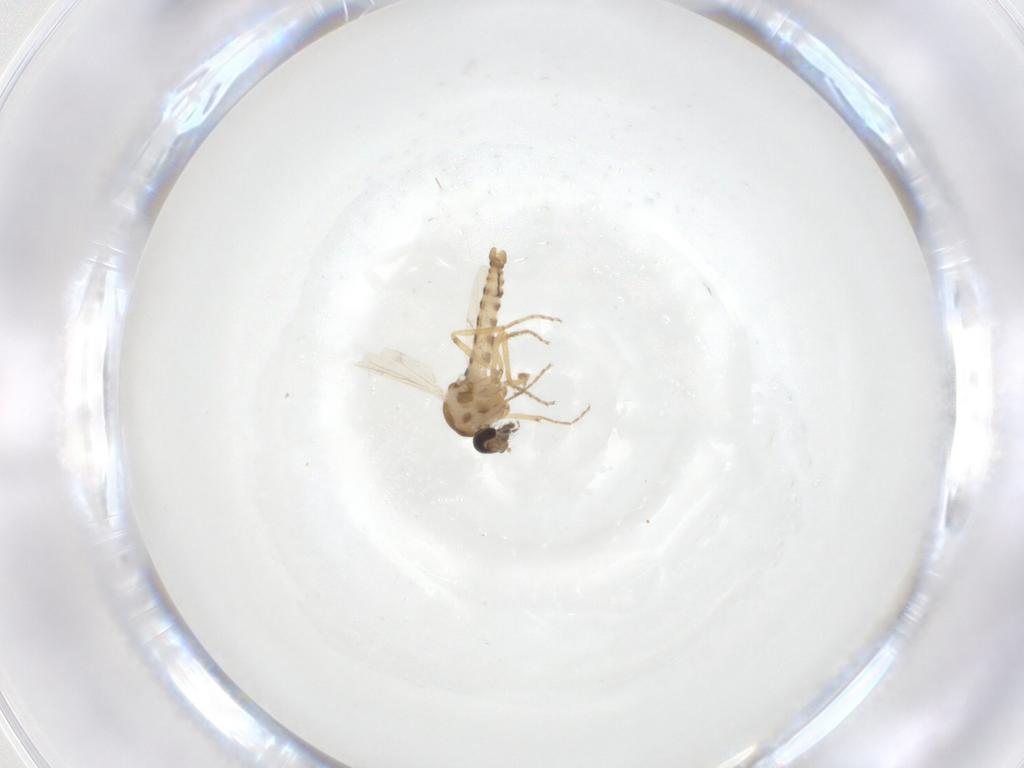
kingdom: Animalia
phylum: Arthropoda
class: Insecta
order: Diptera
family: Ceratopogonidae
